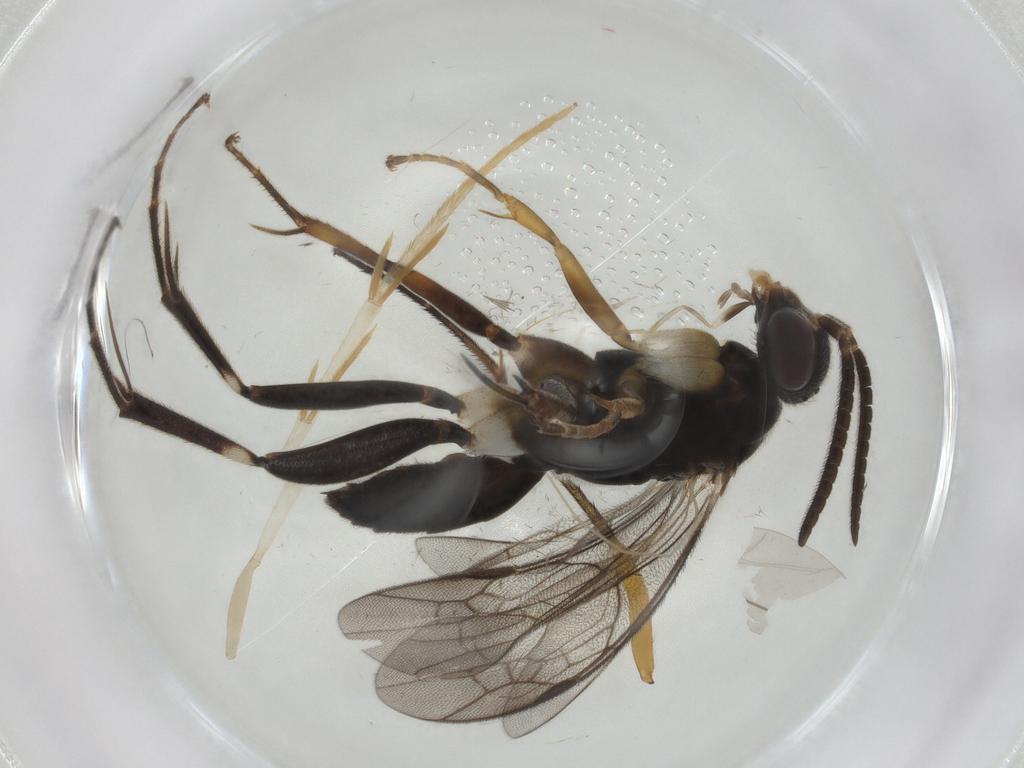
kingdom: Animalia
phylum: Arthropoda
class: Insecta
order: Hymenoptera
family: Pompilidae
